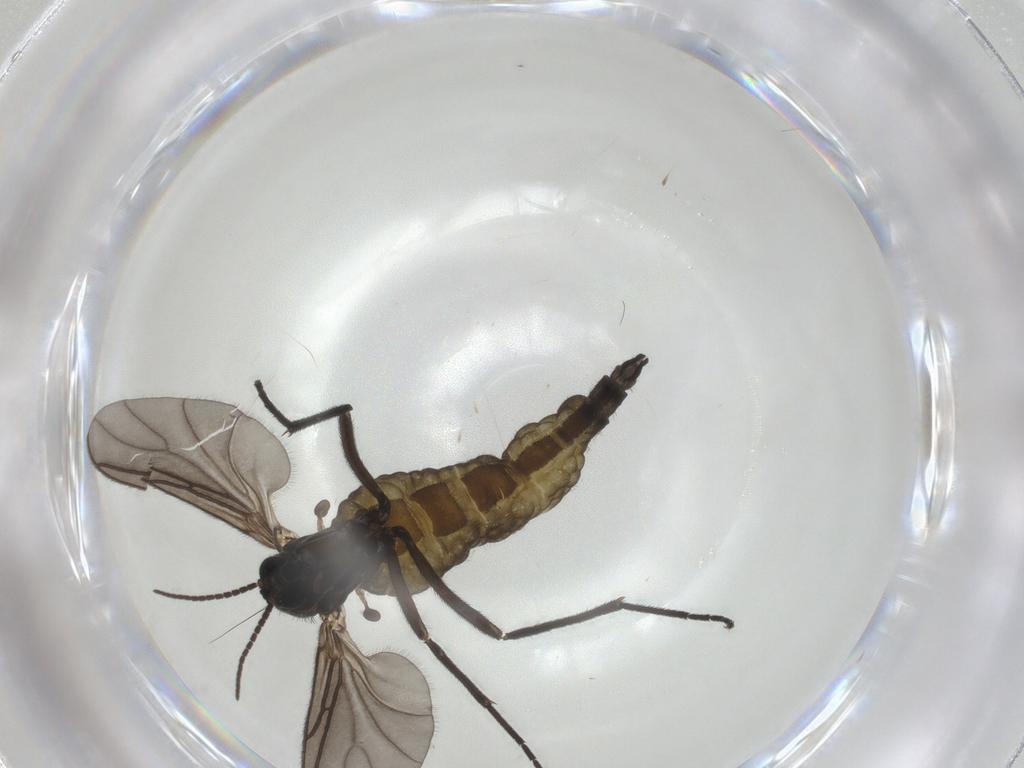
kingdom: Animalia
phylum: Arthropoda
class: Insecta
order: Diptera
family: Sciaridae
